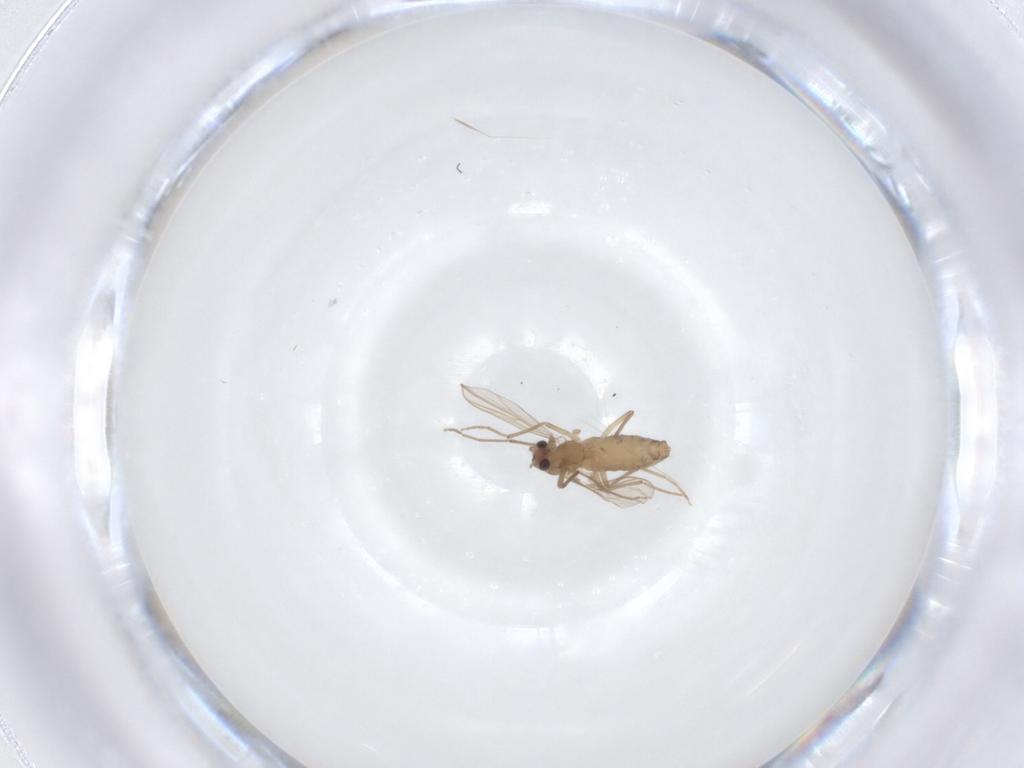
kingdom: Animalia
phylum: Arthropoda
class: Insecta
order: Diptera
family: Chironomidae
